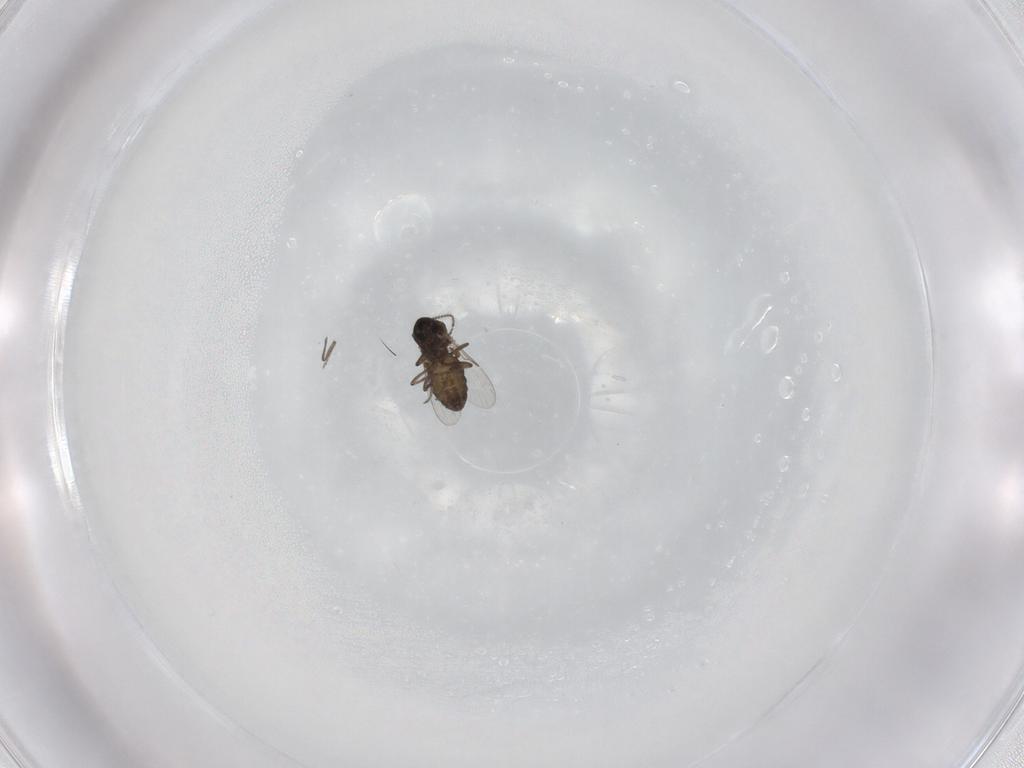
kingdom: Animalia
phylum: Arthropoda
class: Insecta
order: Diptera
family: Ceratopogonidae
